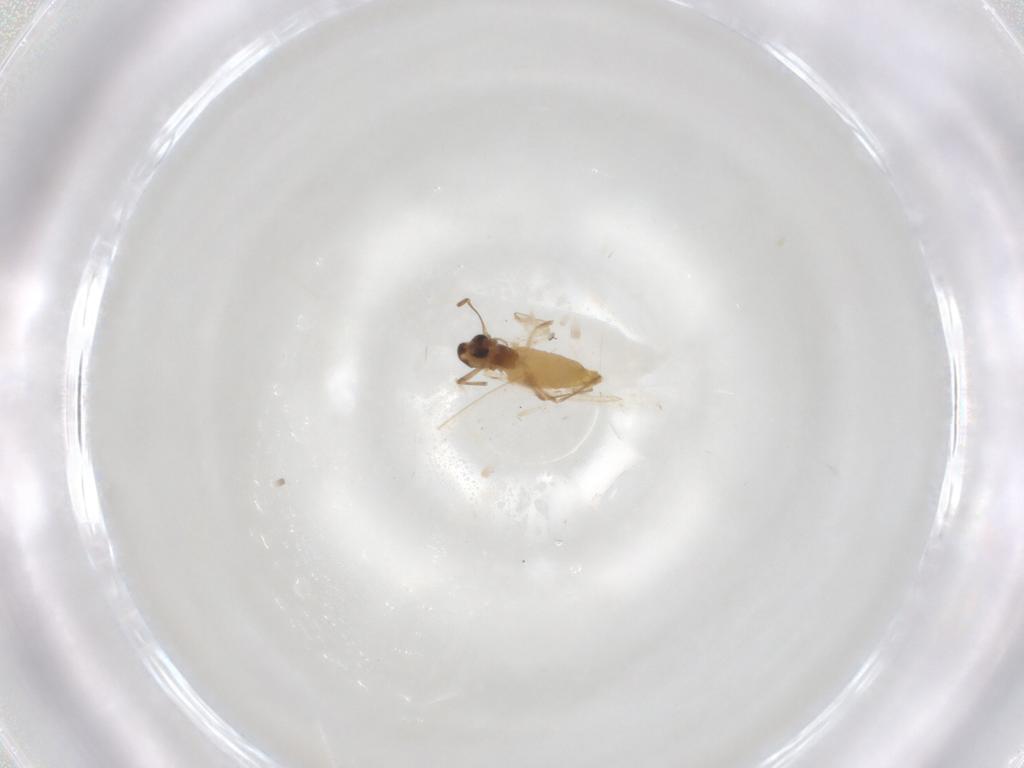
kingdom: Animalia
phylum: Arthropoda
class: Insecta
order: Diptera
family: Chironomidae
